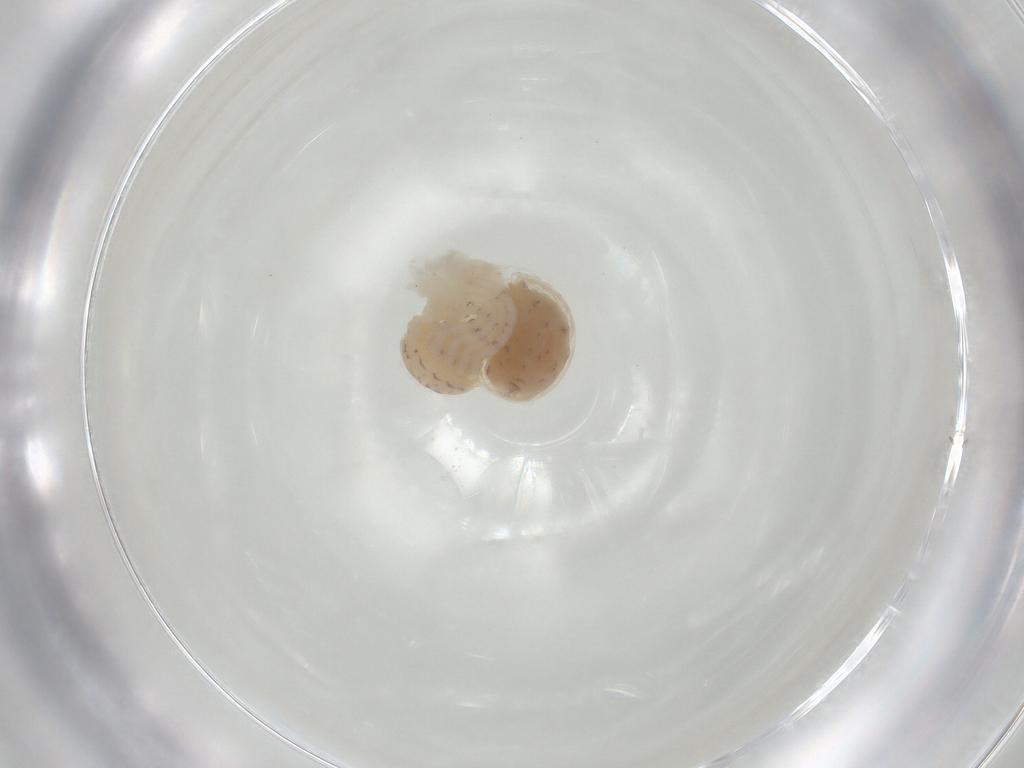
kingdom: Animalia
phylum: Arthropoda
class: Arachnida
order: Araneae
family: Scytodidae
